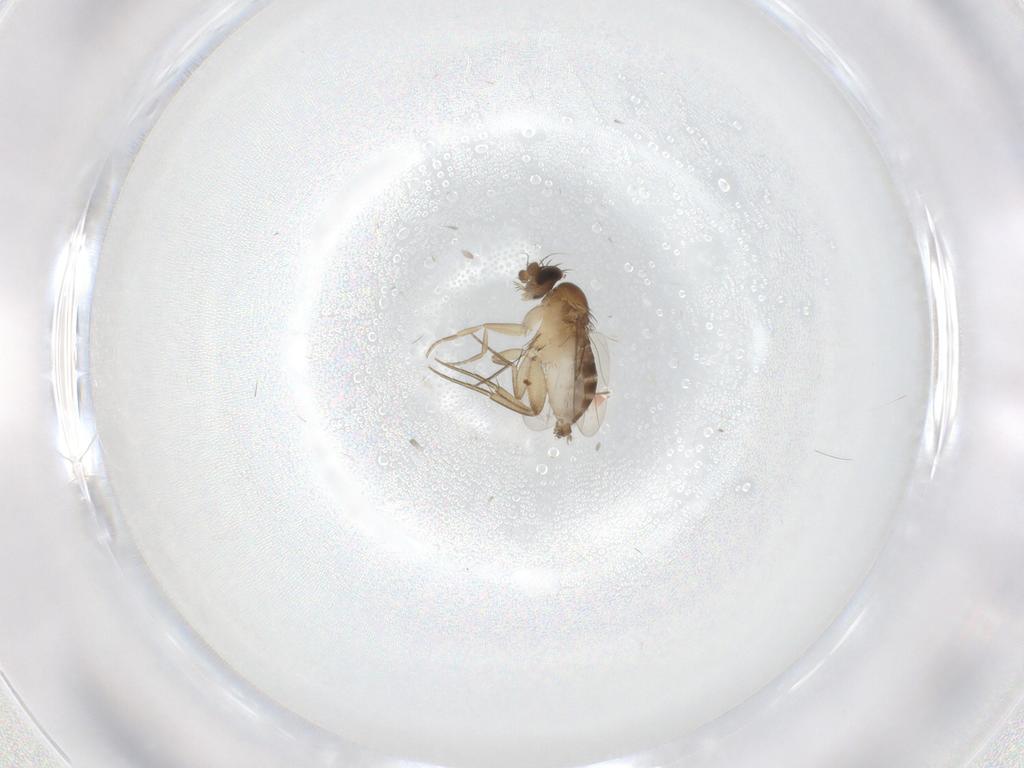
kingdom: Animalia
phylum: Arthropoda
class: Insecta
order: Diptera
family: Phoridae
